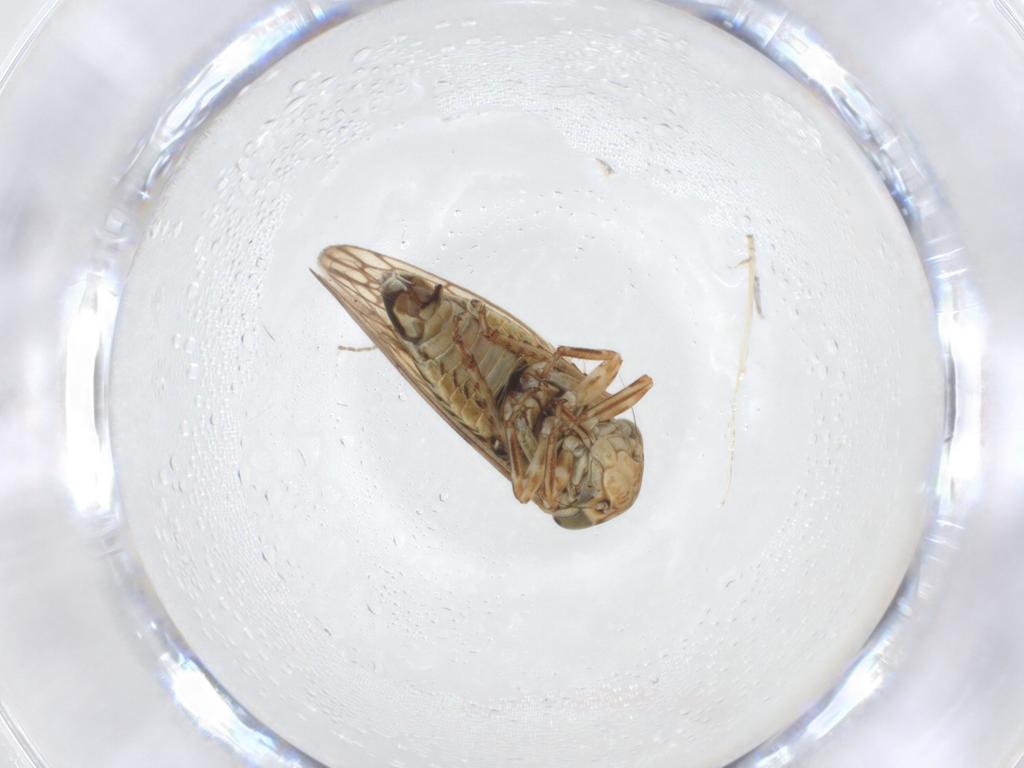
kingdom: Animalia
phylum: Arthropoda
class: Insecta
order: Hemiptera
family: Cicadellidae
